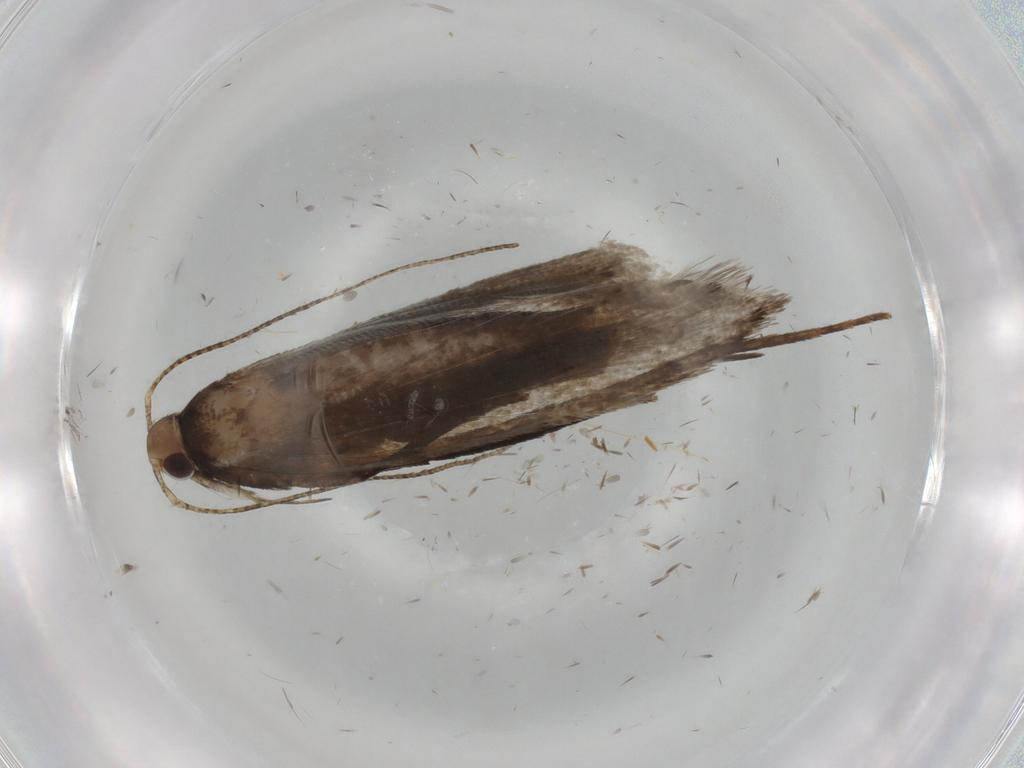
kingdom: Animalia
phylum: Arthropoda
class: Insecta
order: Lepidoptera
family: Gelechiidae
